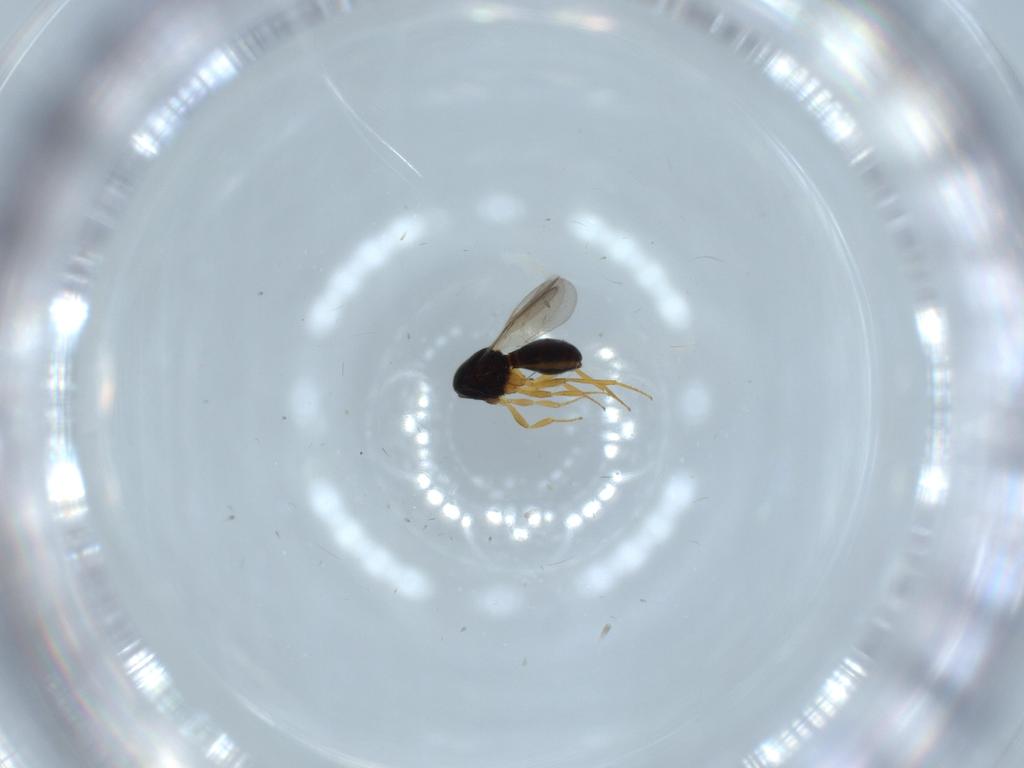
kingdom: Animalia
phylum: Arthropoda
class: Insecta
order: Hymenoptera
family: Scelionidae
